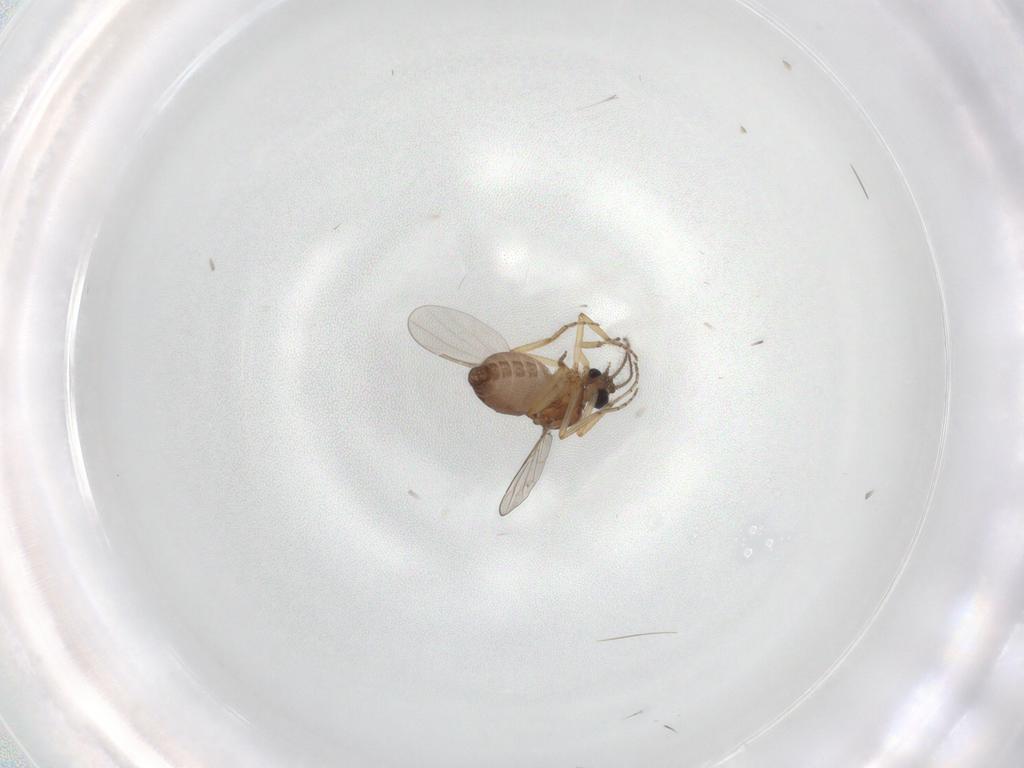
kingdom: Animalia
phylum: Arthropoda
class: Insecta
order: Diptera
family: Ceratopogonidae
